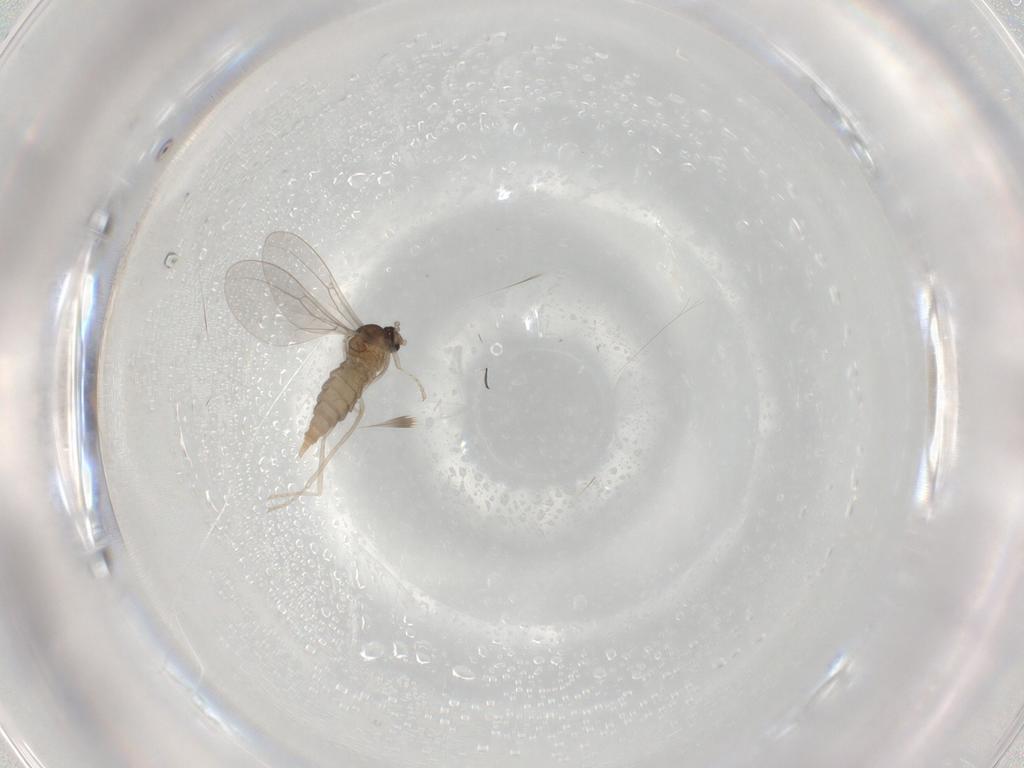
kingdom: Animalia
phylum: Arthropoda
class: Insecta
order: Diptera
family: Cecidomyiidae
